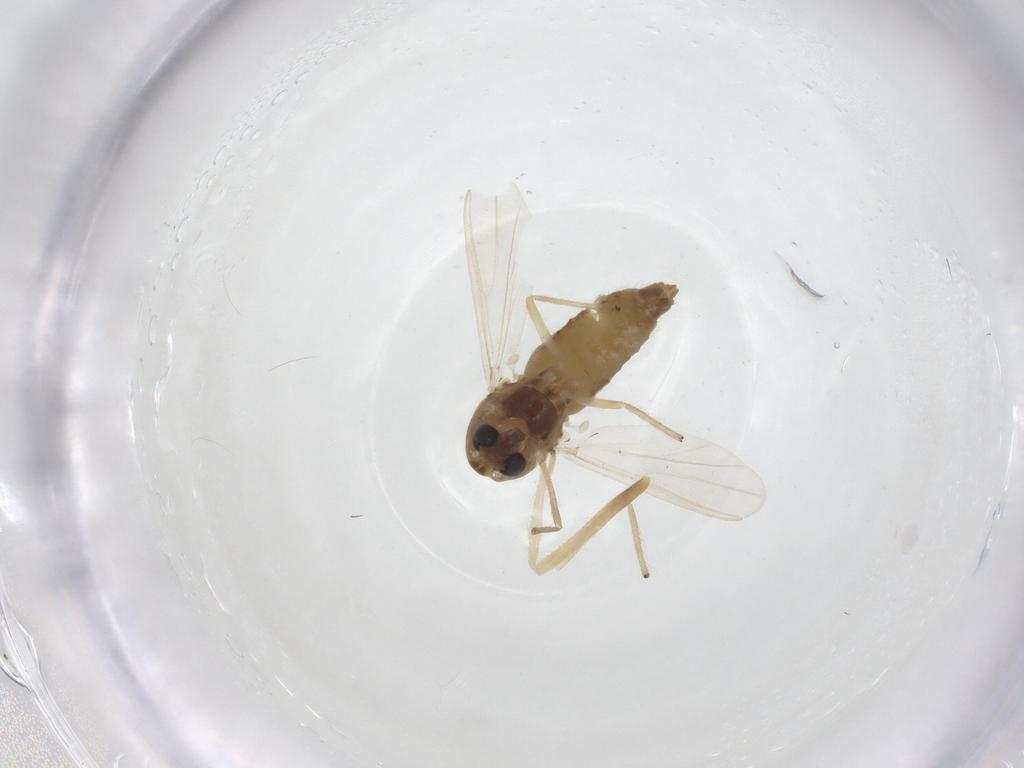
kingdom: Animalia
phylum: Arthropoda
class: Insecta
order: Diptera
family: Chironomidae
